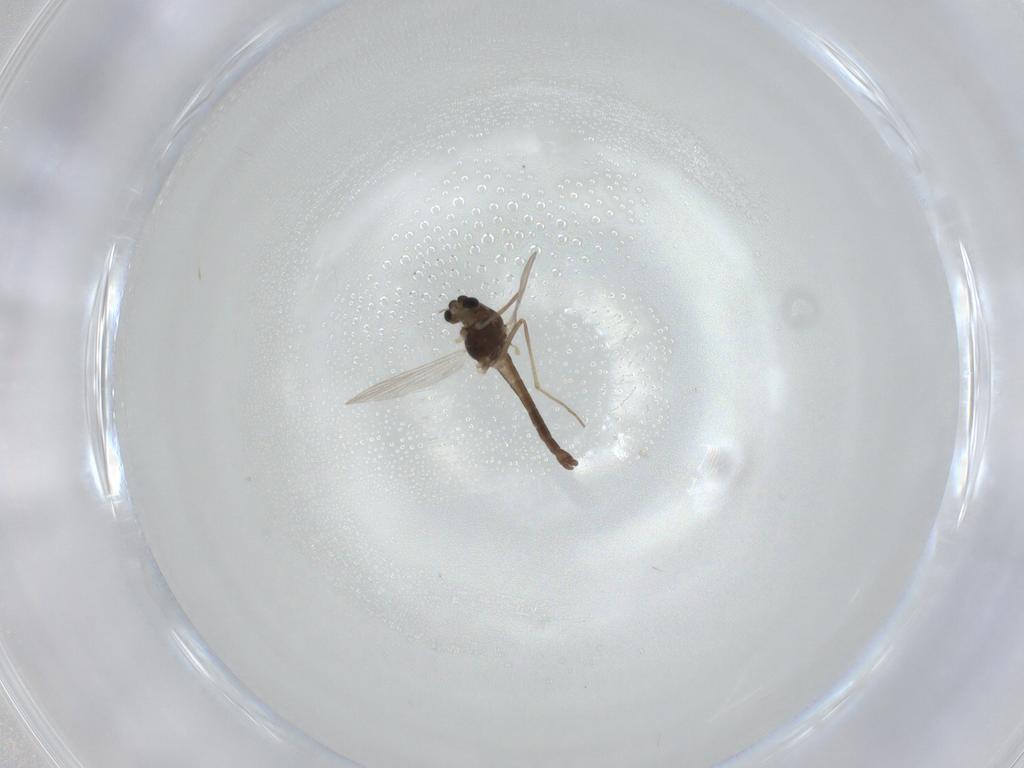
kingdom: Animalia
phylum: Arthropoda
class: Insecta
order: Diptera
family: Chironomidae
